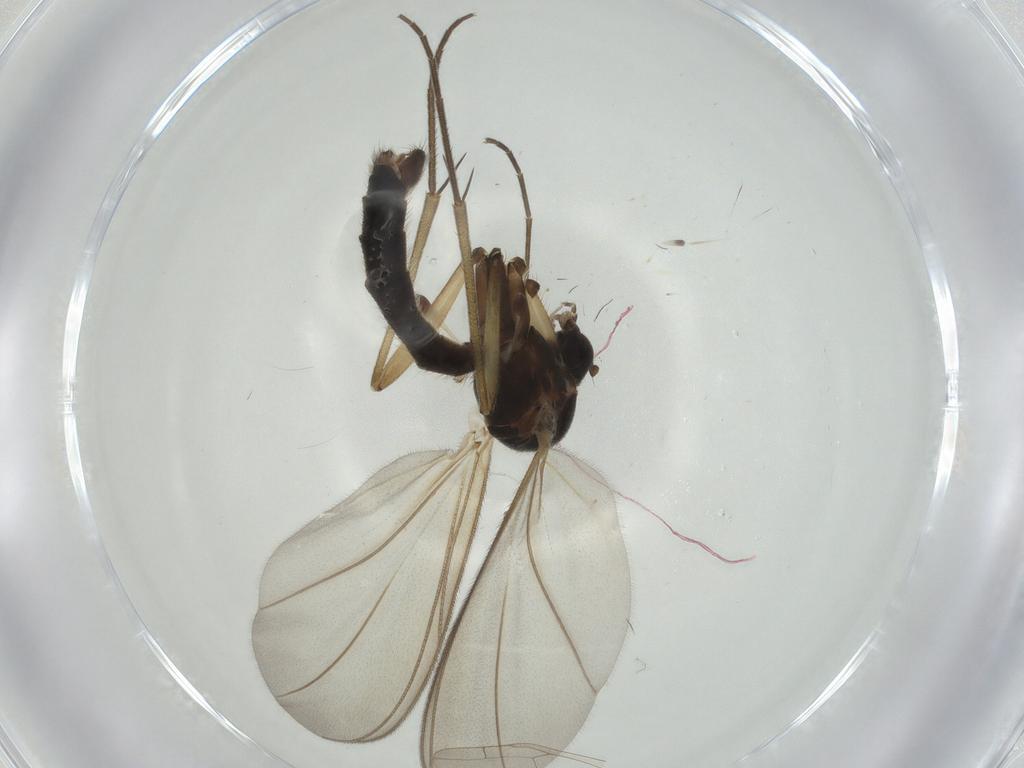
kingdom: Animalia
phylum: Arthropoda
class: Insecta
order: Diptera
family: Chironomidae
